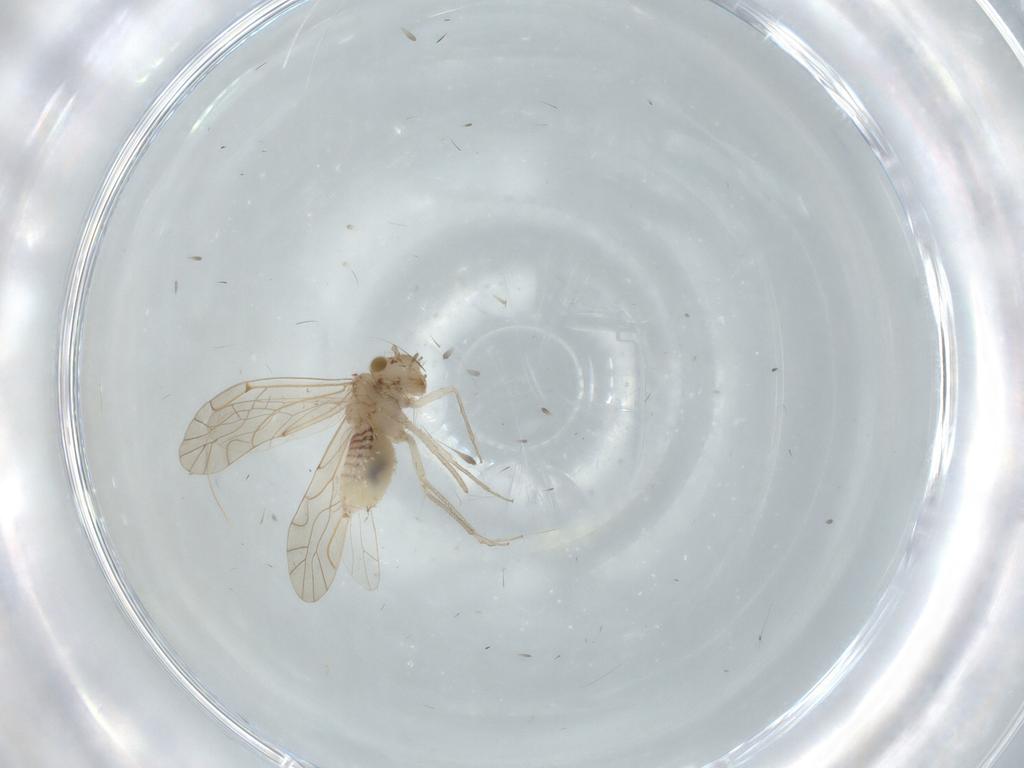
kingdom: Animalia
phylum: Arthropoda
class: Insecta
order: Psocodea
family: Lachesillidae
